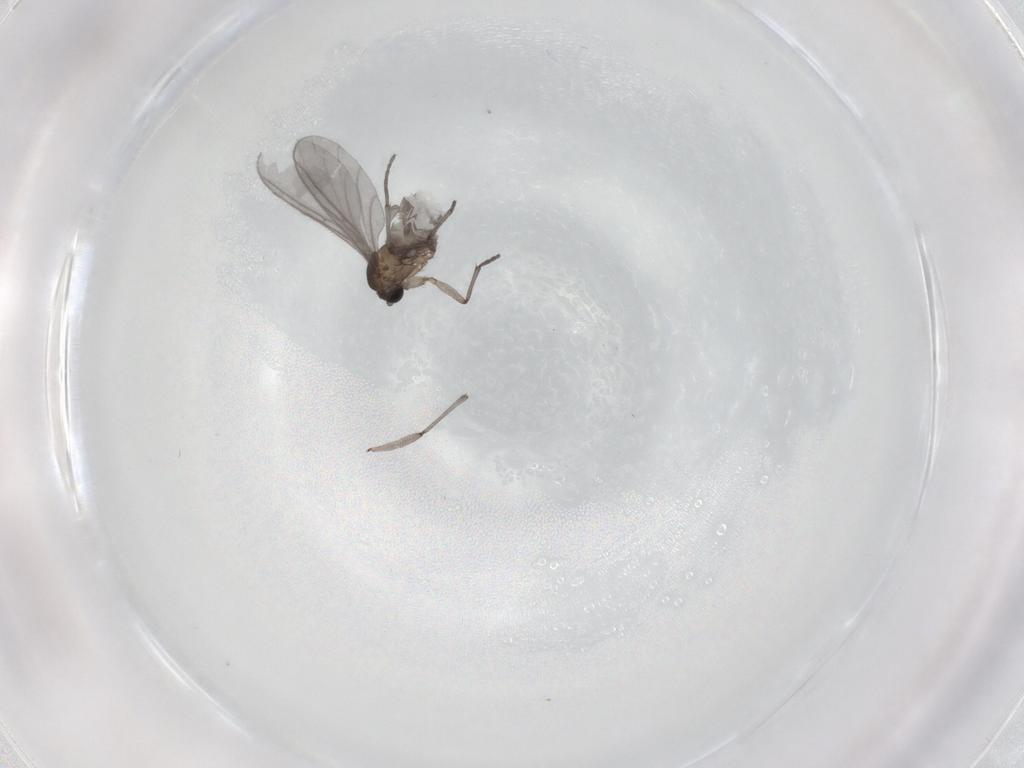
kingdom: Animalia
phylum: Arthropoda
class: Insecta
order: Diptera
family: Sciaridae
